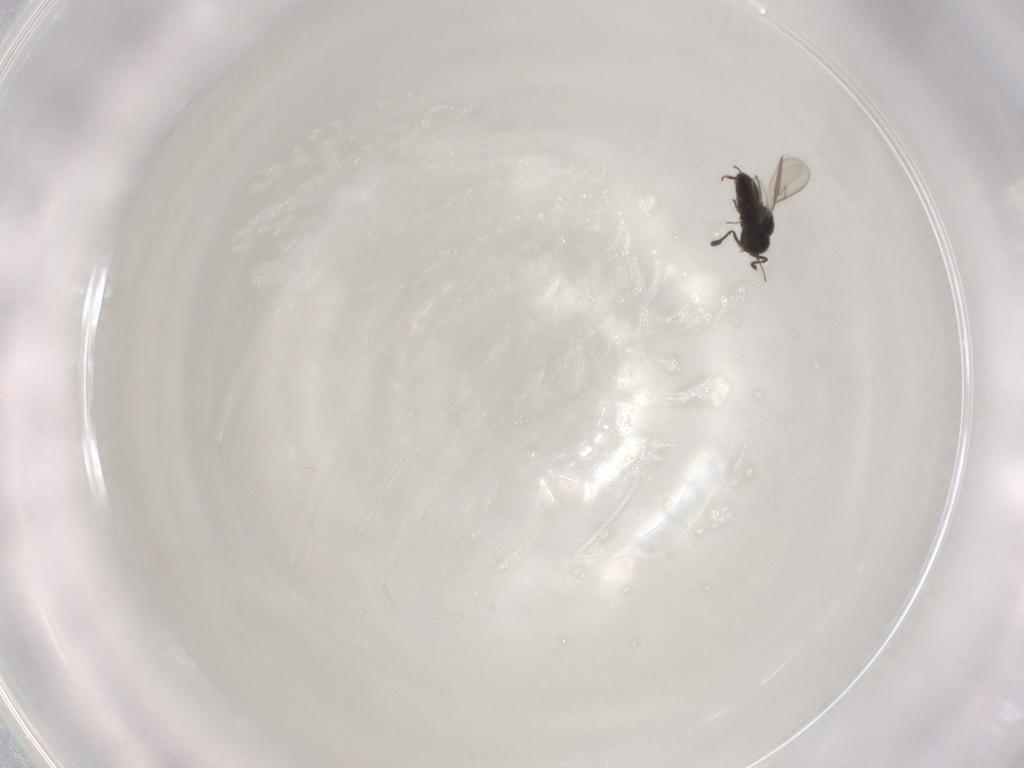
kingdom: Animalia
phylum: Arthropoda
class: Insecta
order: Hymenoptera
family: Scelionidae
